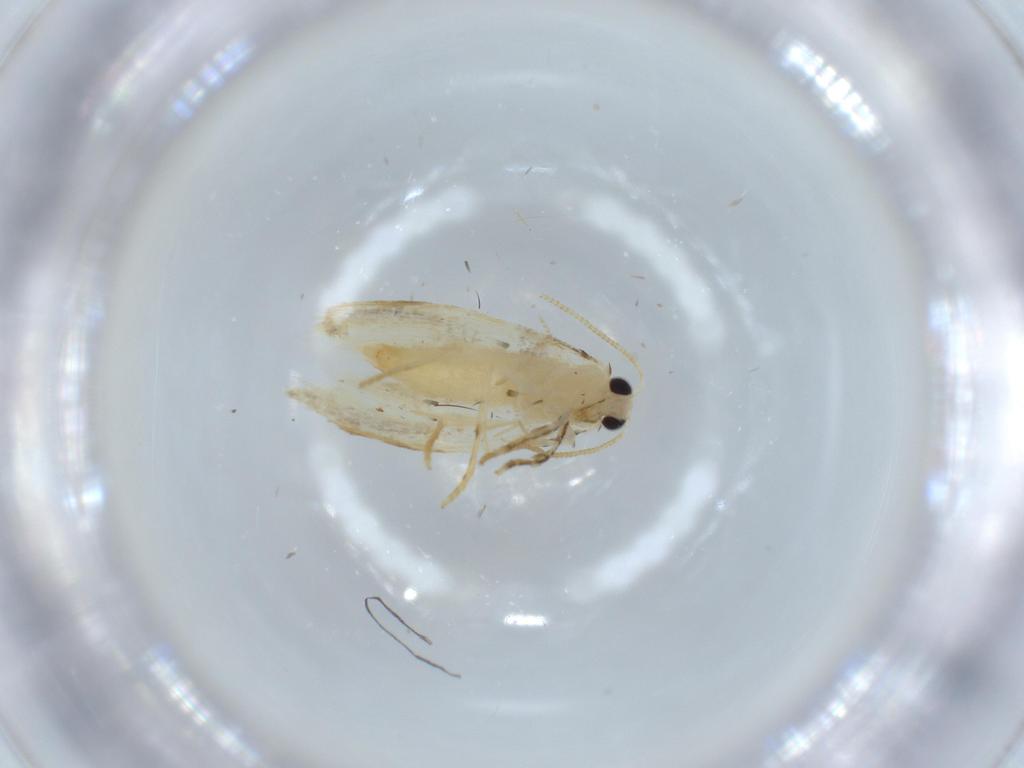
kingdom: Animalia
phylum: Arthropoda
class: Insecta
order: Lepidoptera
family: Tineidae
